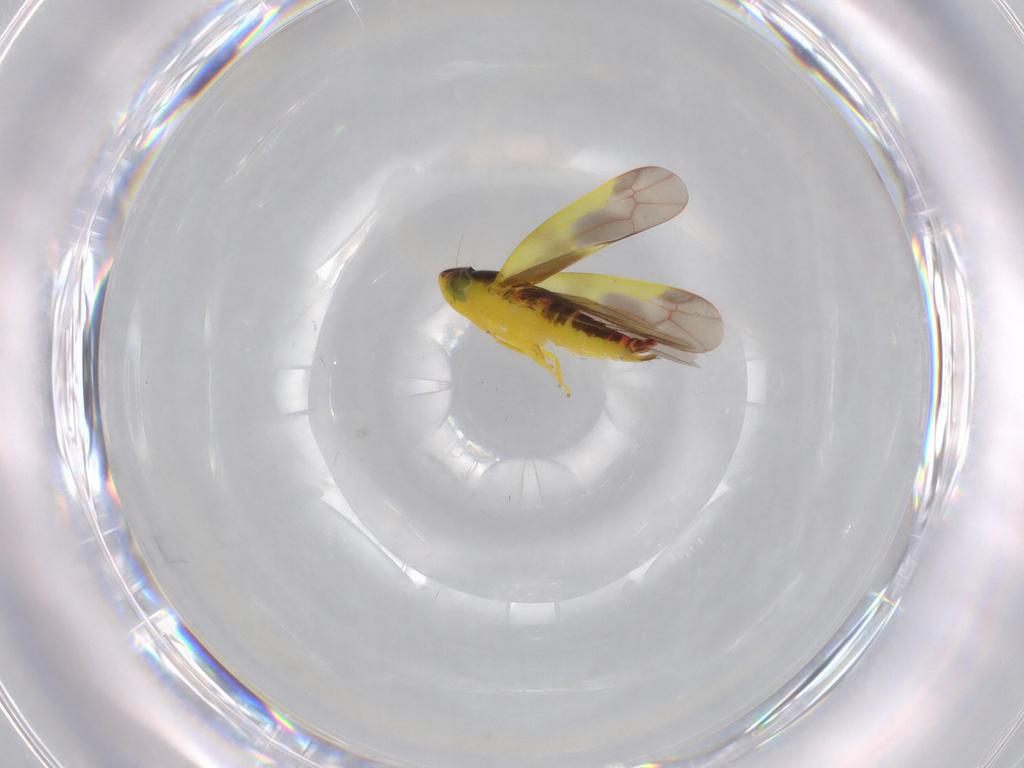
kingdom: Animalia
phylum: Arthropoda
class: Insecta
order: Hemiptera
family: Cicadellidae
